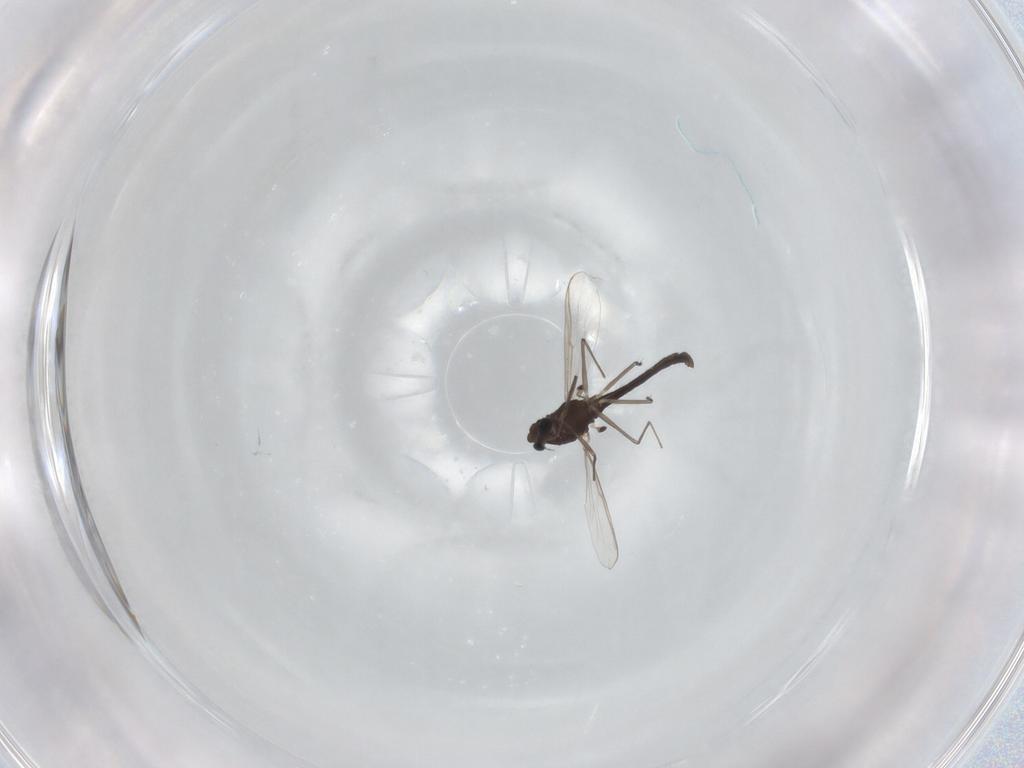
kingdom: Animalia
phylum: Arthropoda
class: Insecta
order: Diptera
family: Chironomidae
